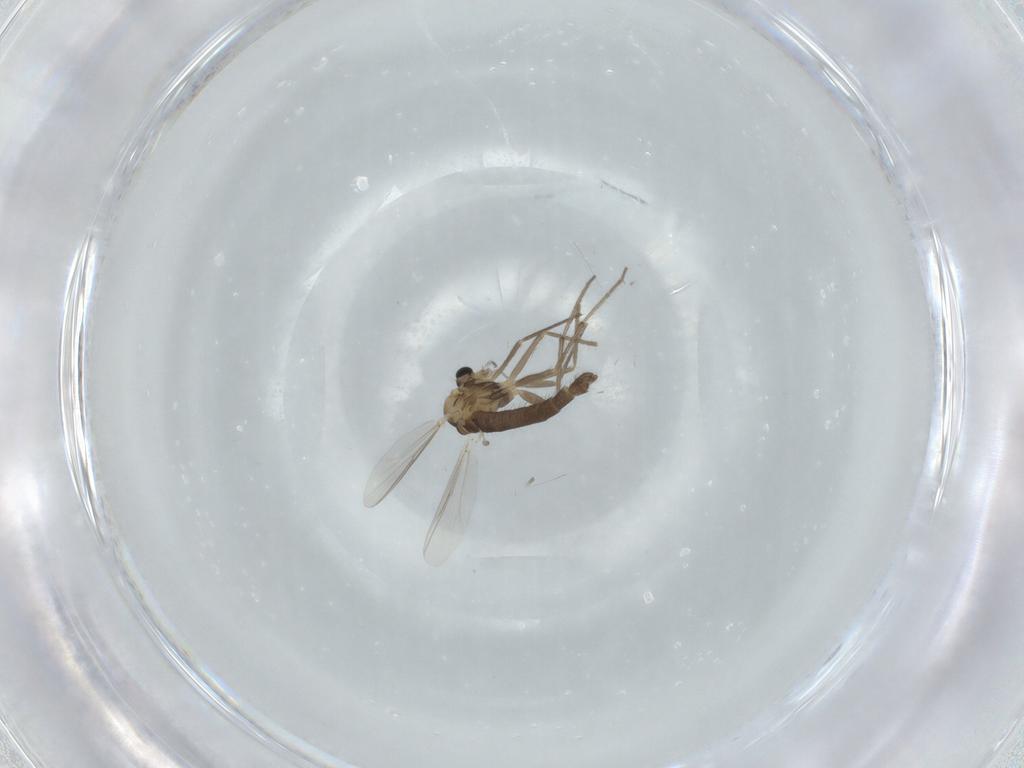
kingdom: Animalia
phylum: Arthropoda
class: Insecta
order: Diptera
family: Chironomidae
